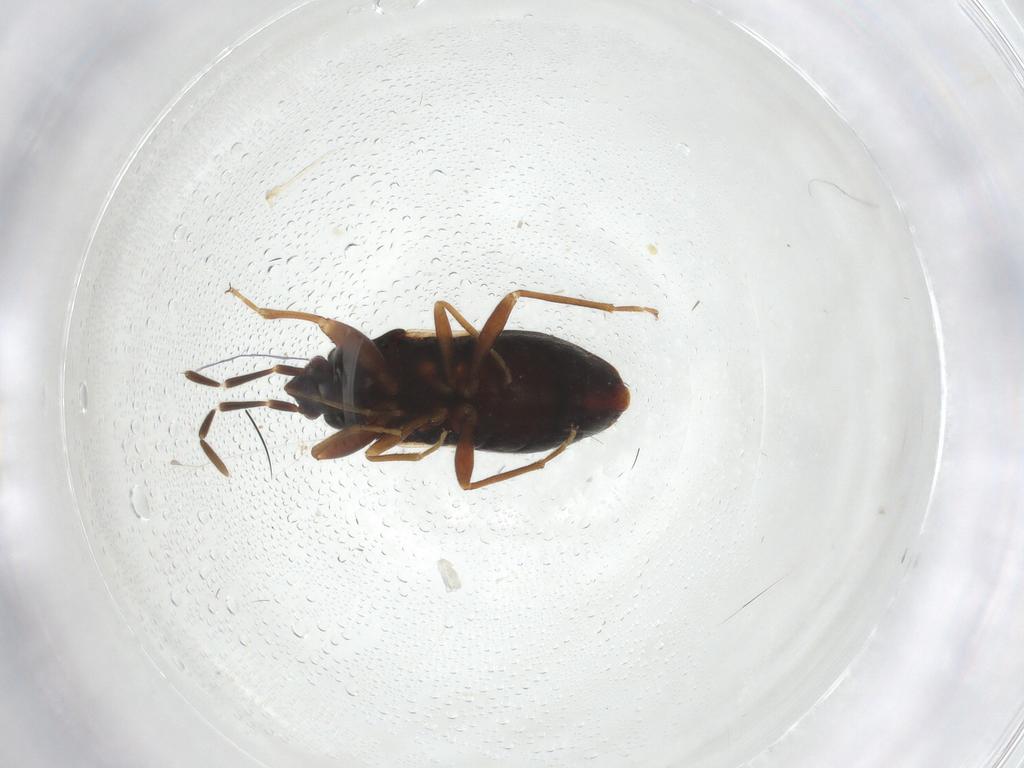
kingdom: Animalia
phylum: Arthropoda
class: Insecta
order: Hemiptera
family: Rhyparochromidae
